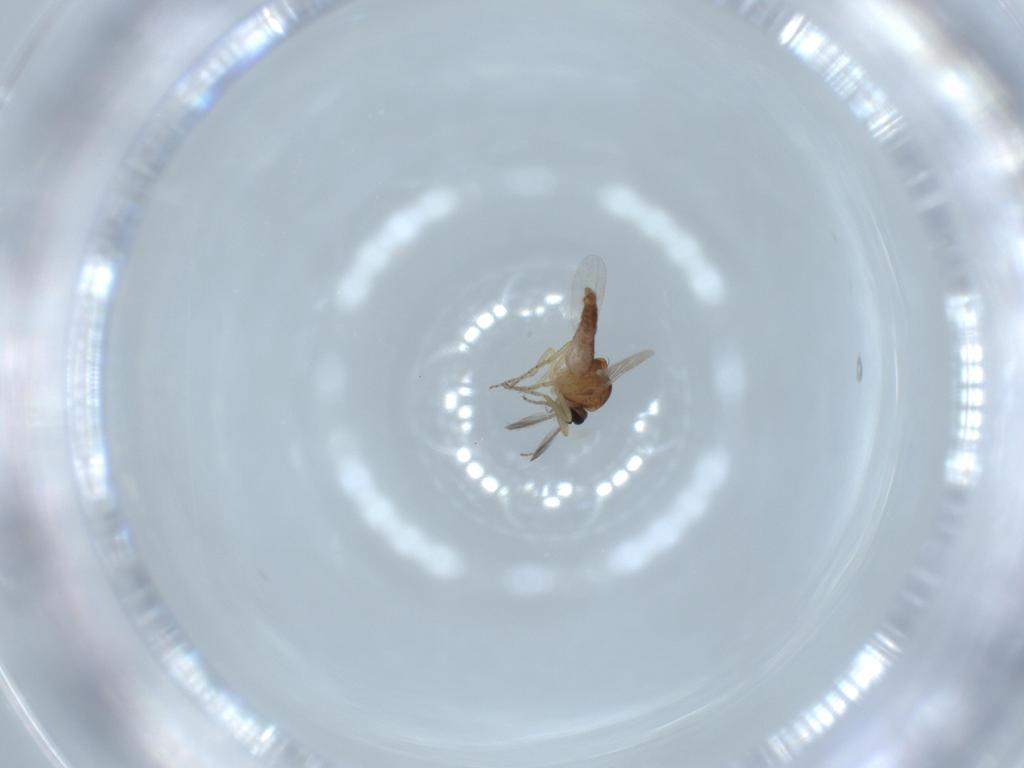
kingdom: Animalia
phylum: Arthropoda
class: Insecta
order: Diptera
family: Ceratopogonidae
